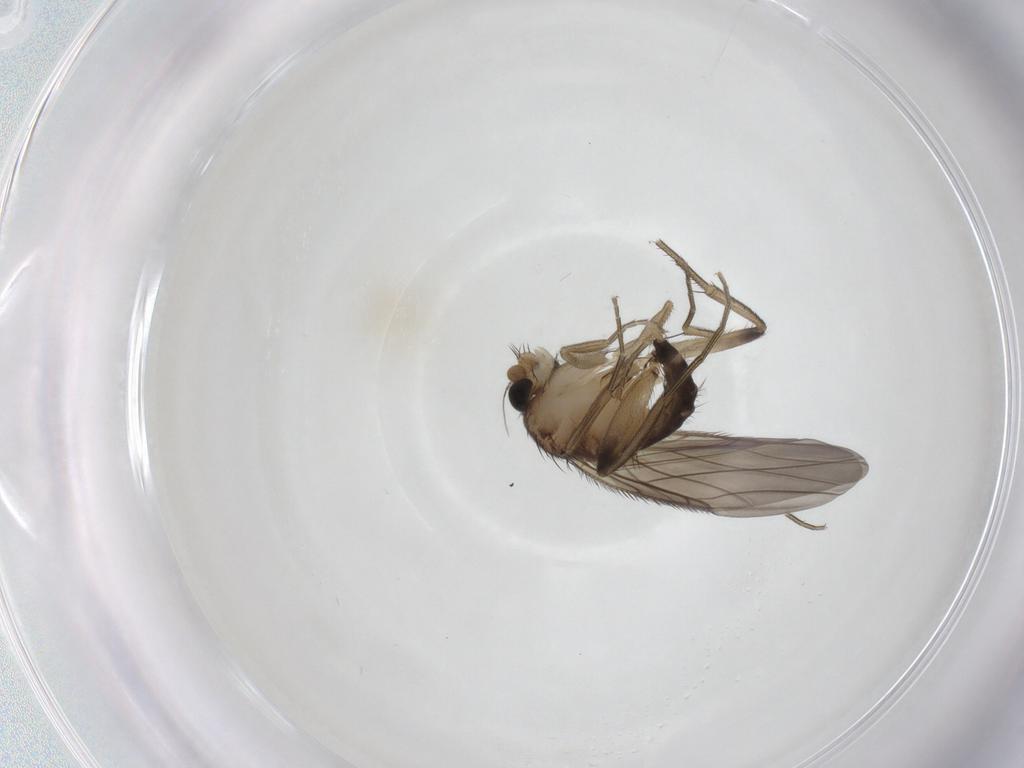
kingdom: Animalia
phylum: Arthropoda
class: Insecta
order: Diptera
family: Phoridae
